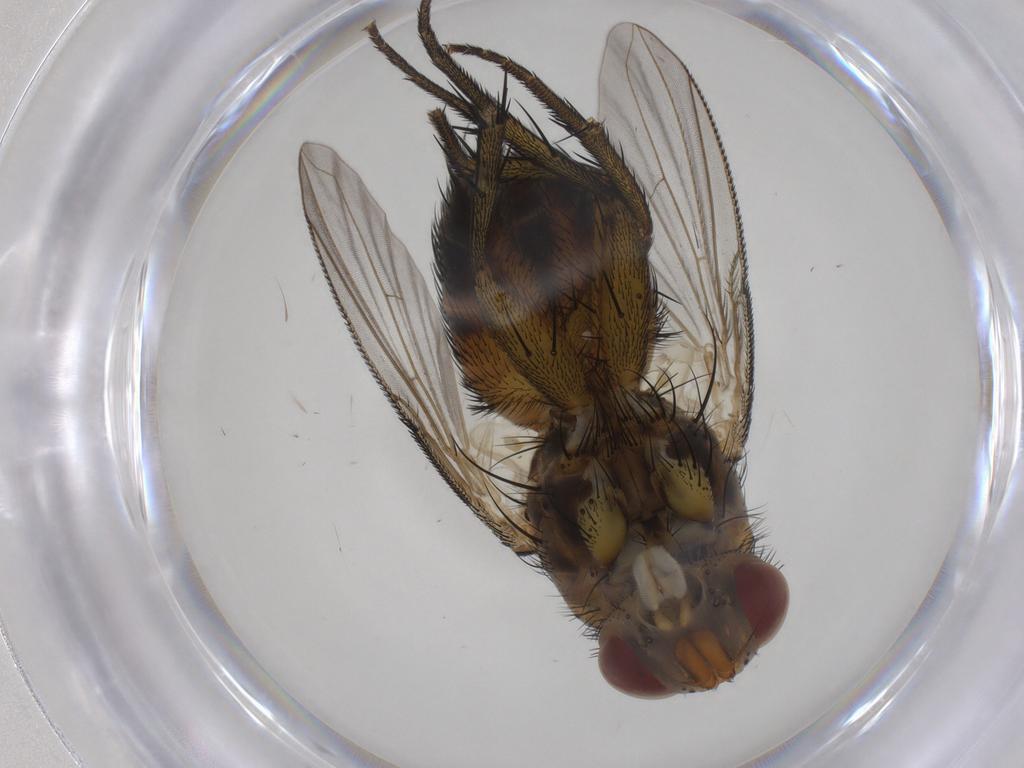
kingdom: Animalia
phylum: Arthropoda
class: Insecta
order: Diptera
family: Tachinidae
